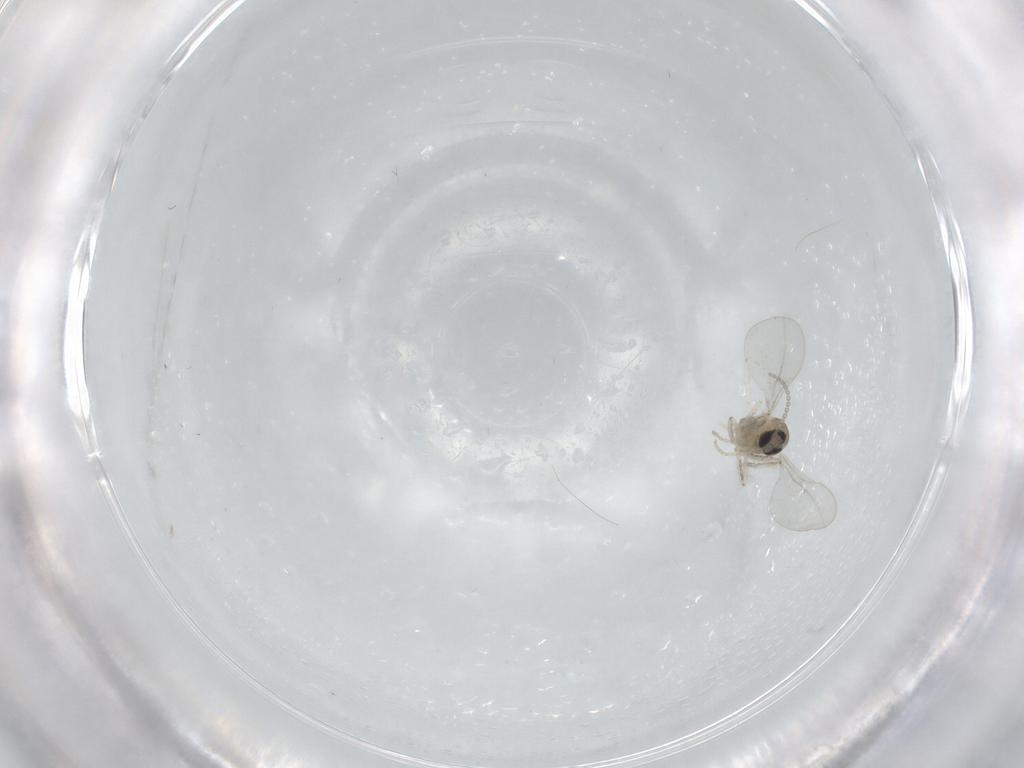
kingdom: Animalia
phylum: Arthropoda
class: Insecta
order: Diptera
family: Cecidomyiidae
